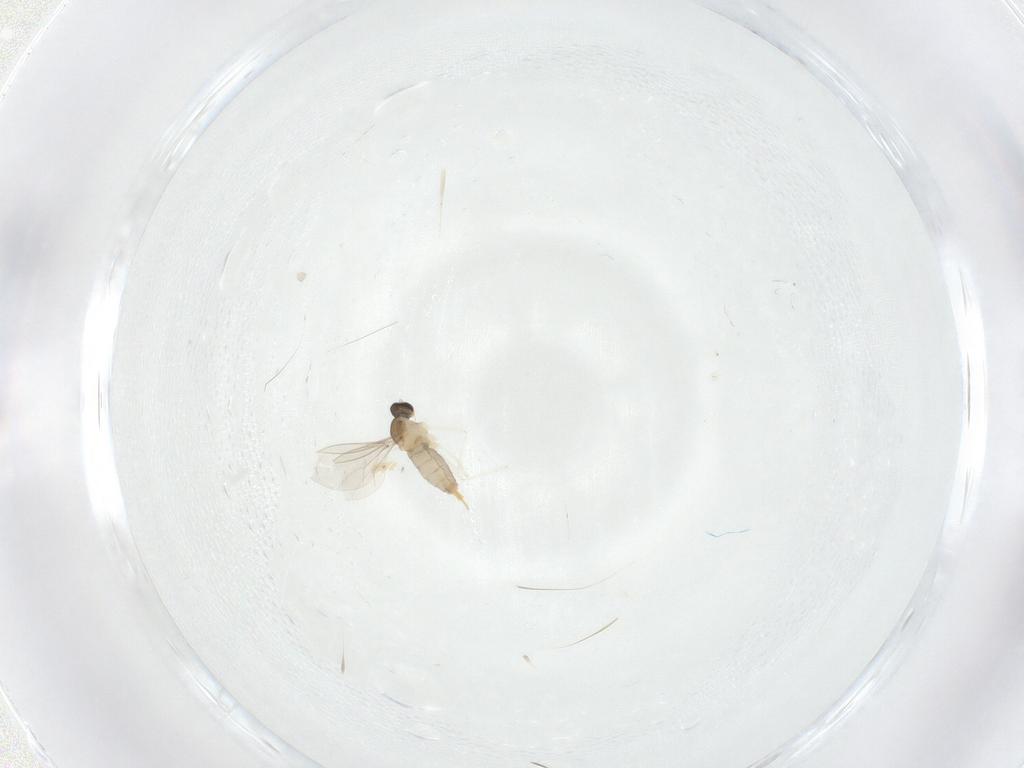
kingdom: Animalia
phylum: Arthropoda
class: Insecta
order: Diptera
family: Cecidomyiidae
